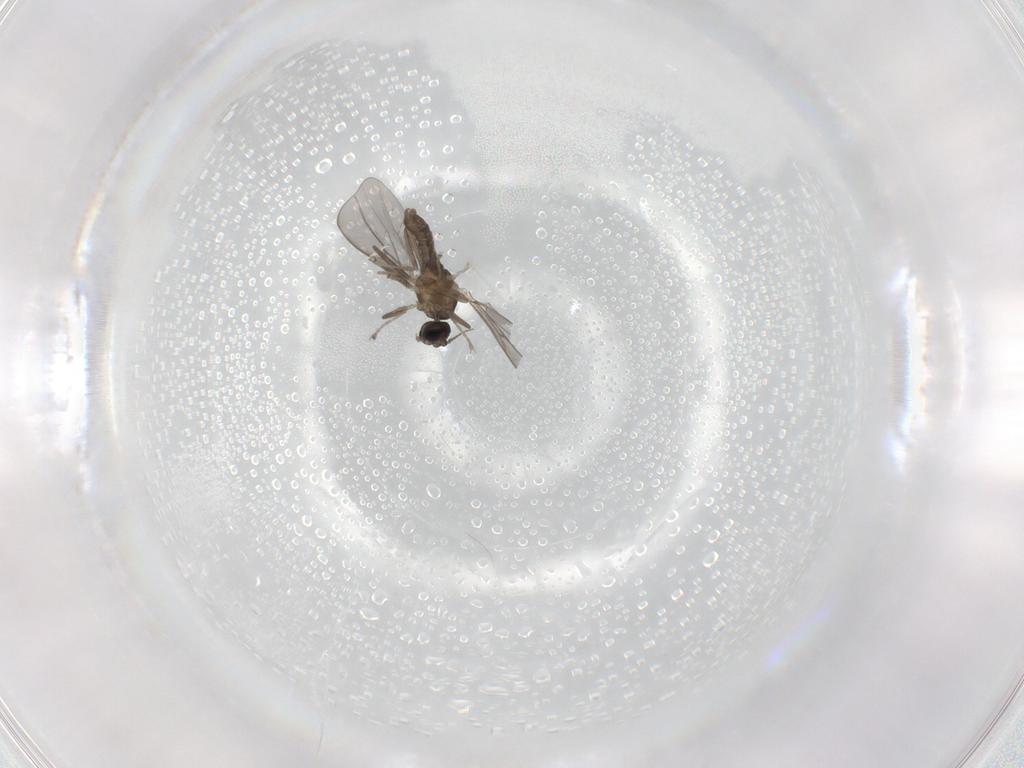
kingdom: Animalia
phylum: Arthropoda
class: Insecta
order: Diptera
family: Cecidomyiidae
